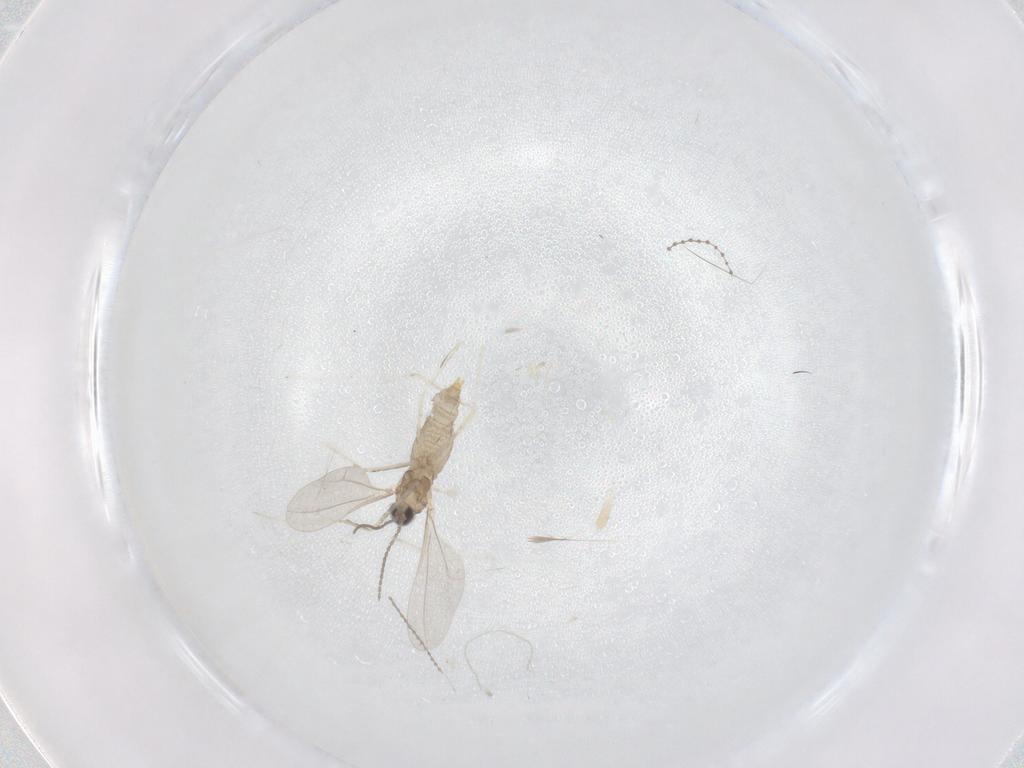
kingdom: Animalia
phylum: Arthropoda
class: Insecta
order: Diptera
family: Cecidomyiidae
